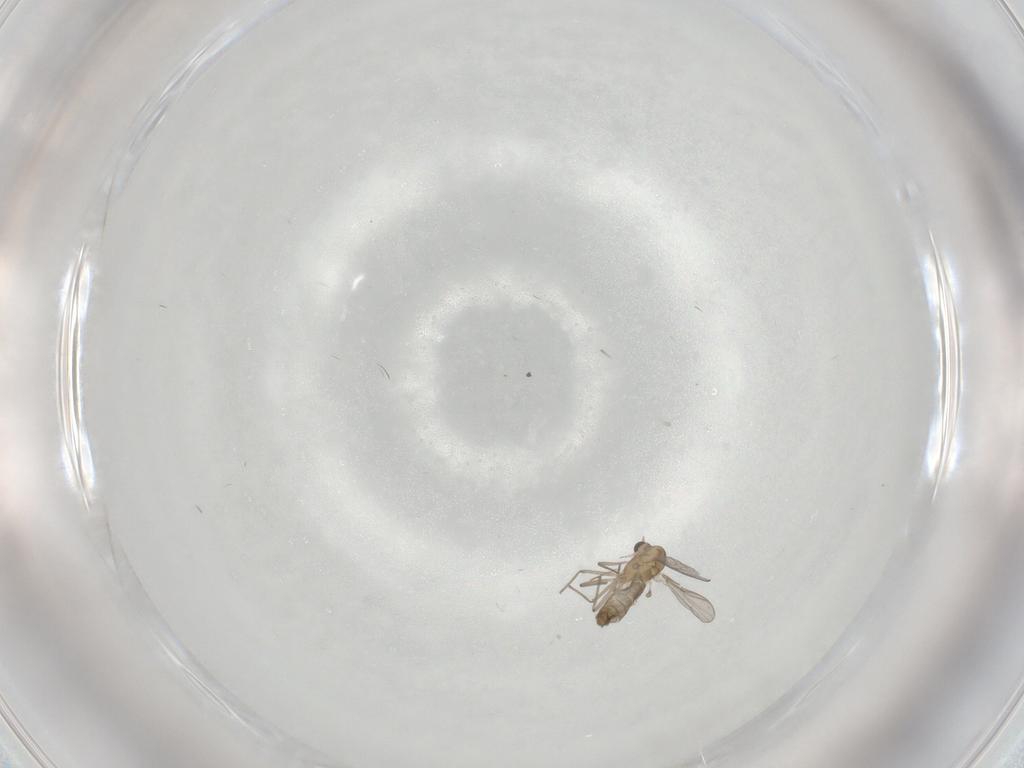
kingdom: Animalia
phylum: Arthropoda
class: Insecta
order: Diptera
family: Chironomidae
